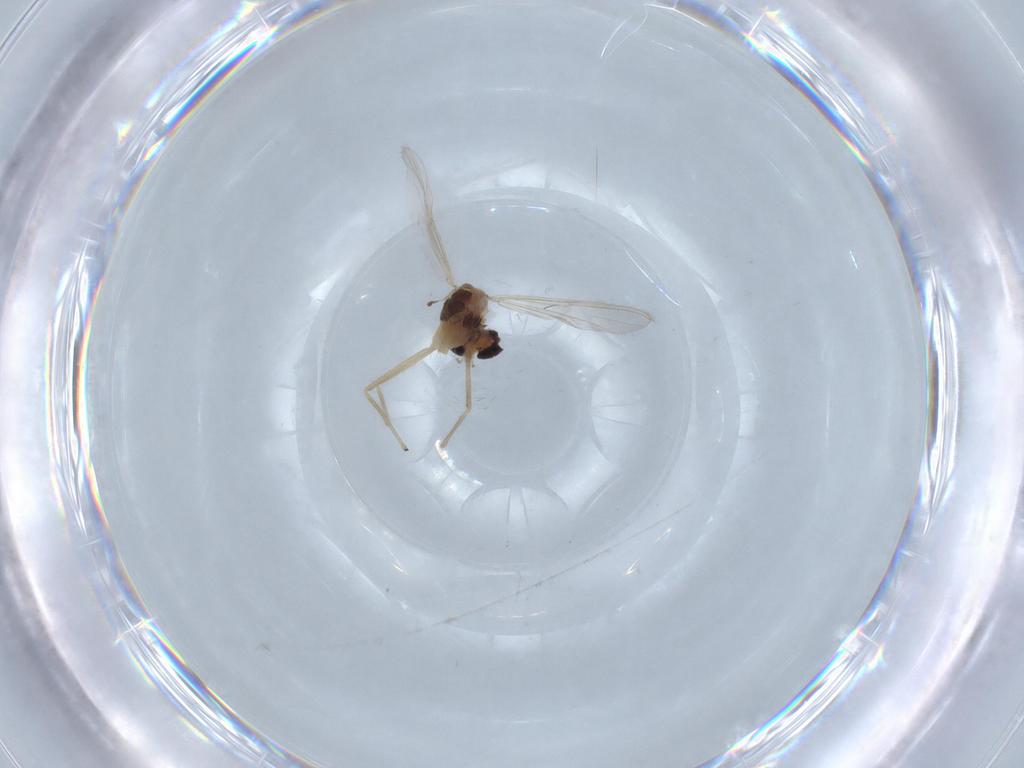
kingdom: Animalia
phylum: Arthropoda
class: Insecta
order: Diptera
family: Chironomidae
